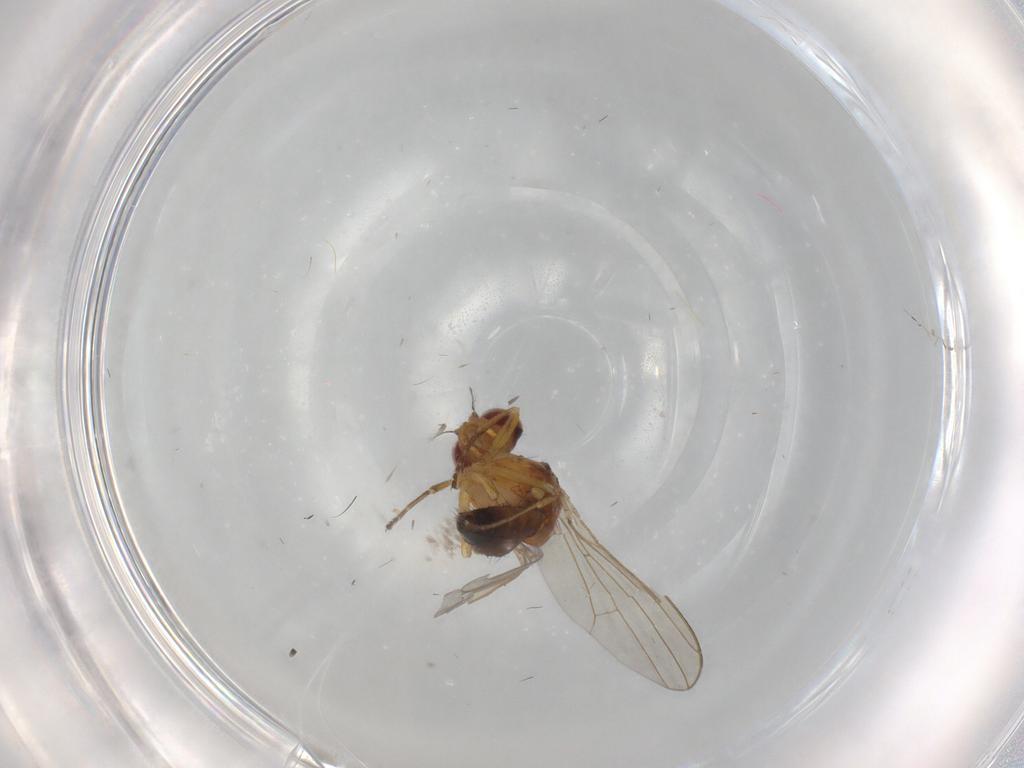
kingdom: Animalia
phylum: Arthropoda
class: Insecta
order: Diptera
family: Drosophilidae
